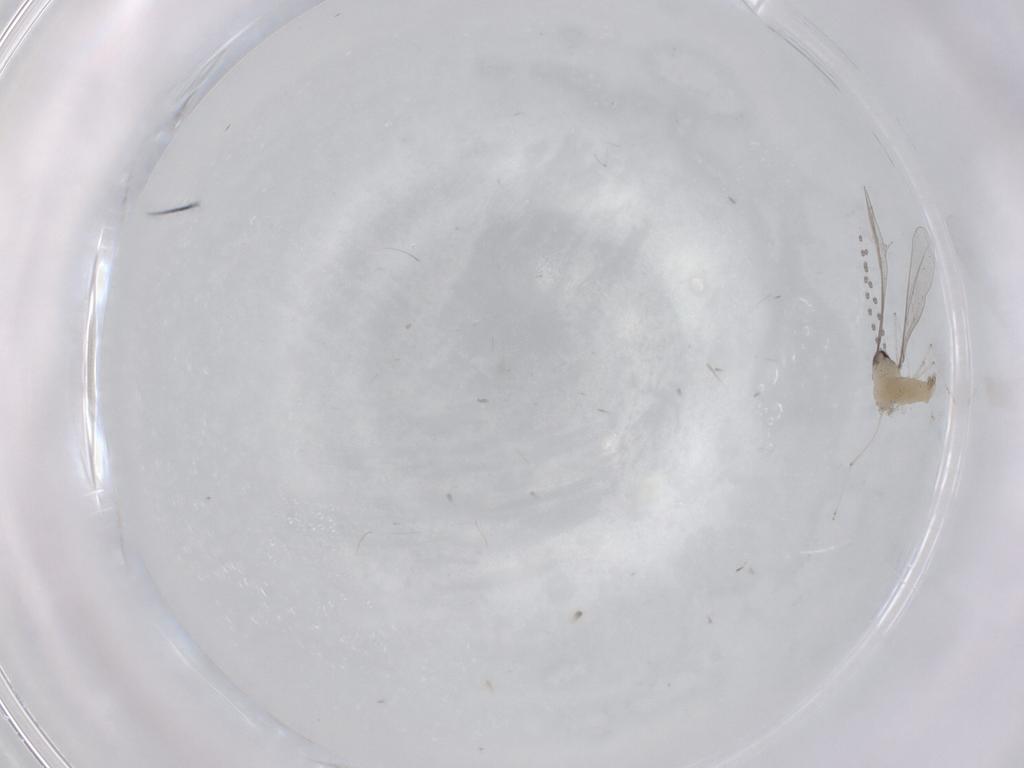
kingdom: Animalia
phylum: Arthropoda
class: Insecta
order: Diptera
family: Cecidomyiidae
